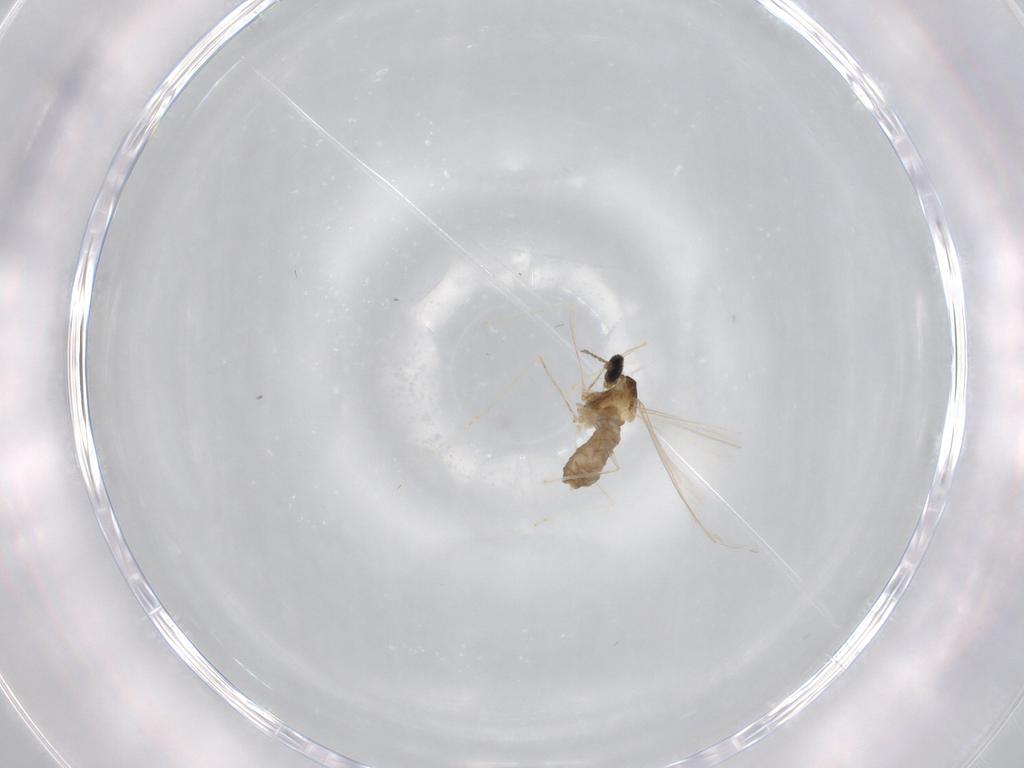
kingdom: Animalia
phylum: Arthropoda
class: Insecta
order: Diptera
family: Cecidomyiidae
